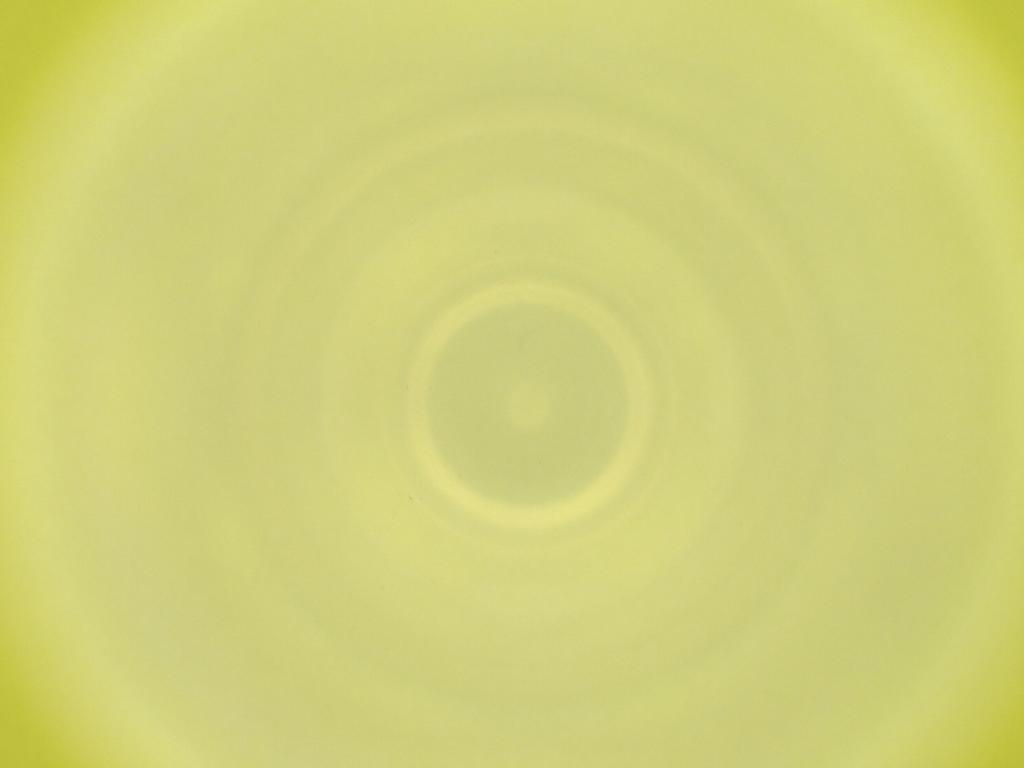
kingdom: Animalia
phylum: Arthropoda
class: Insecta
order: Diptera
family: Cecidomyiidae
